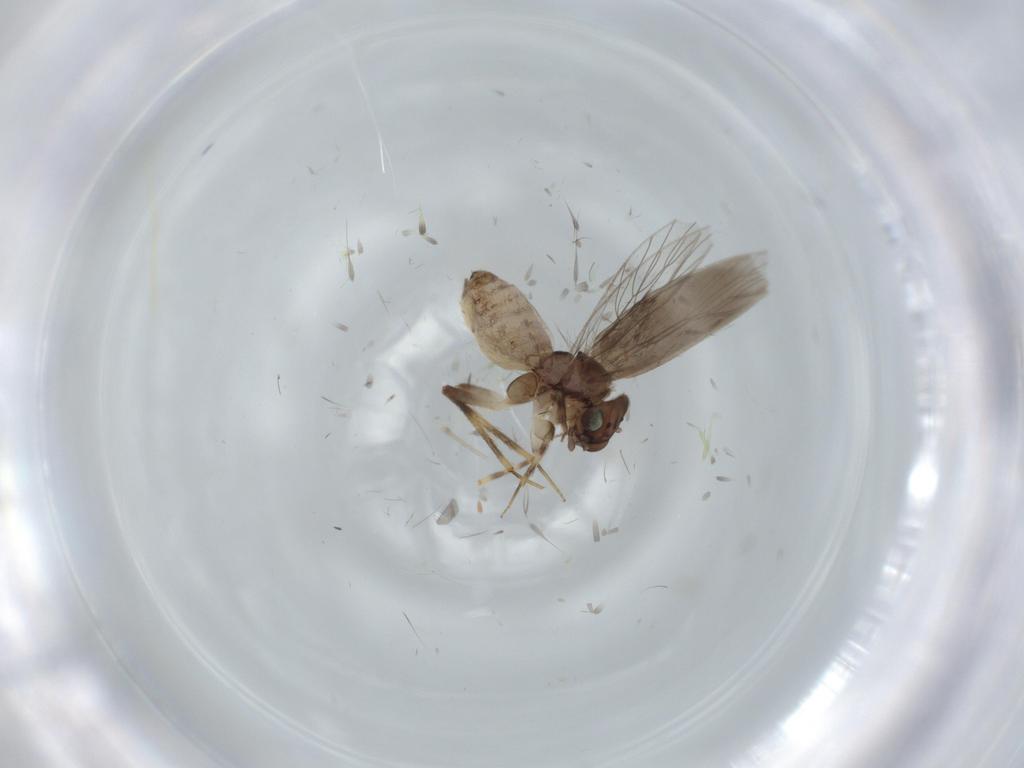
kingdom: Animalia
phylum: Arthropoda
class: Insecta
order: Psocodea
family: Lepidopsocidae
